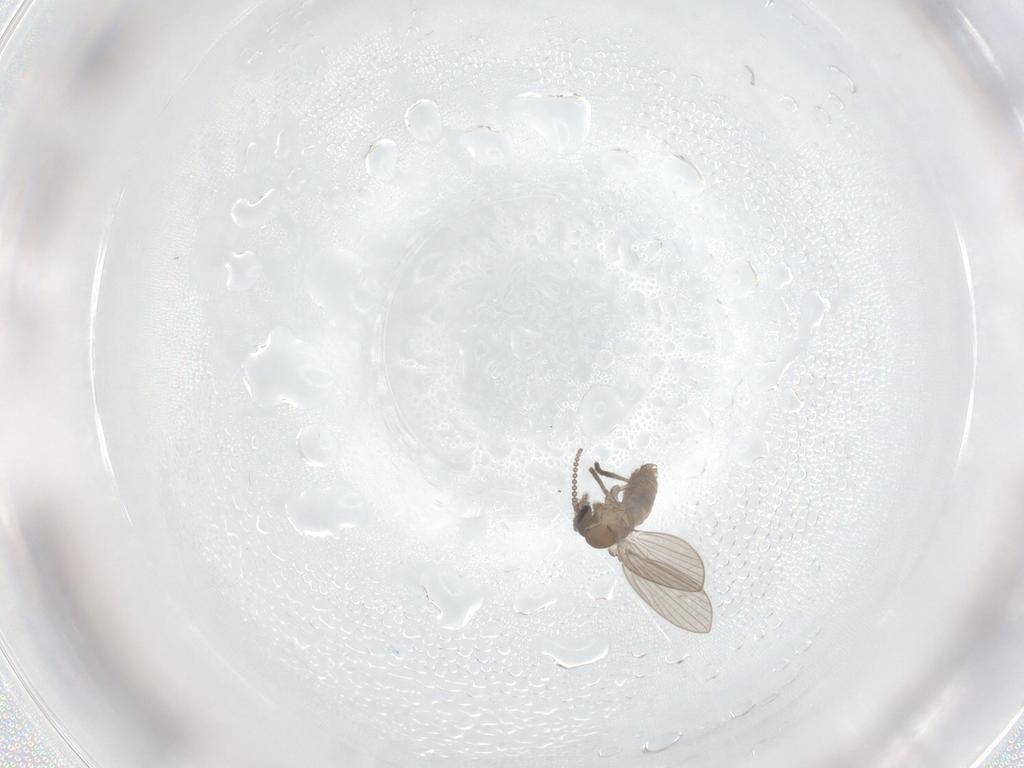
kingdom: Animalia
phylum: Arthropoda
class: Insecta
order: Diptera
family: Psychodidae
